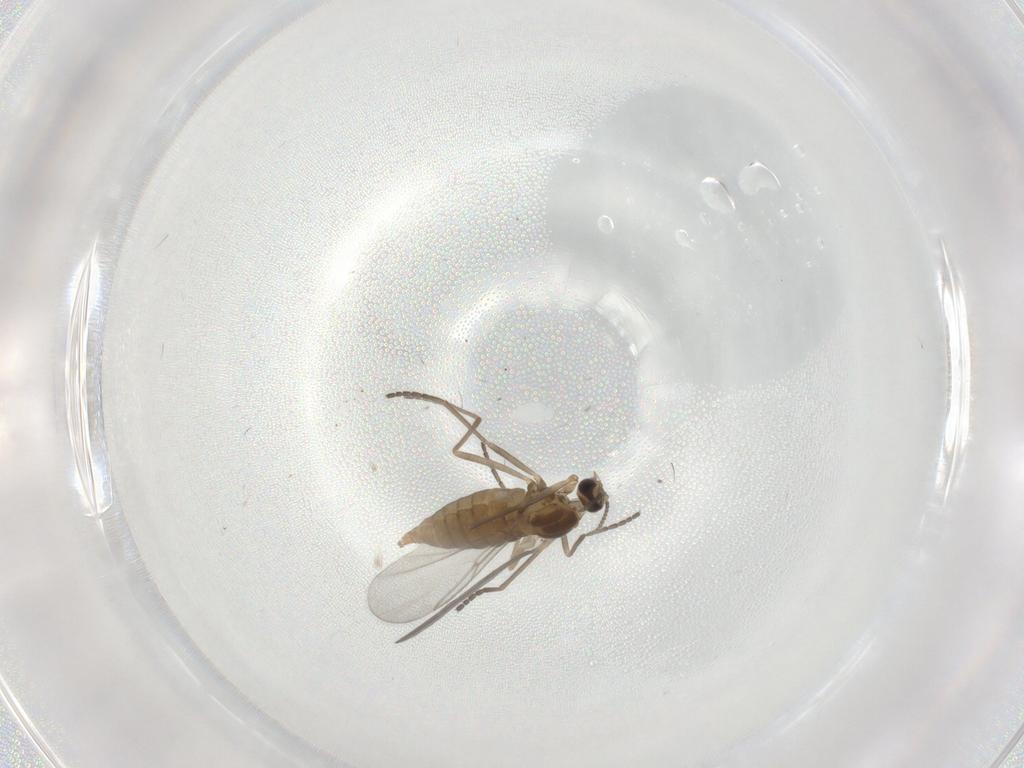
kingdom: Animalia
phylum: Arthropoda
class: Insecta
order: Diptera
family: Cecidomyiidae
